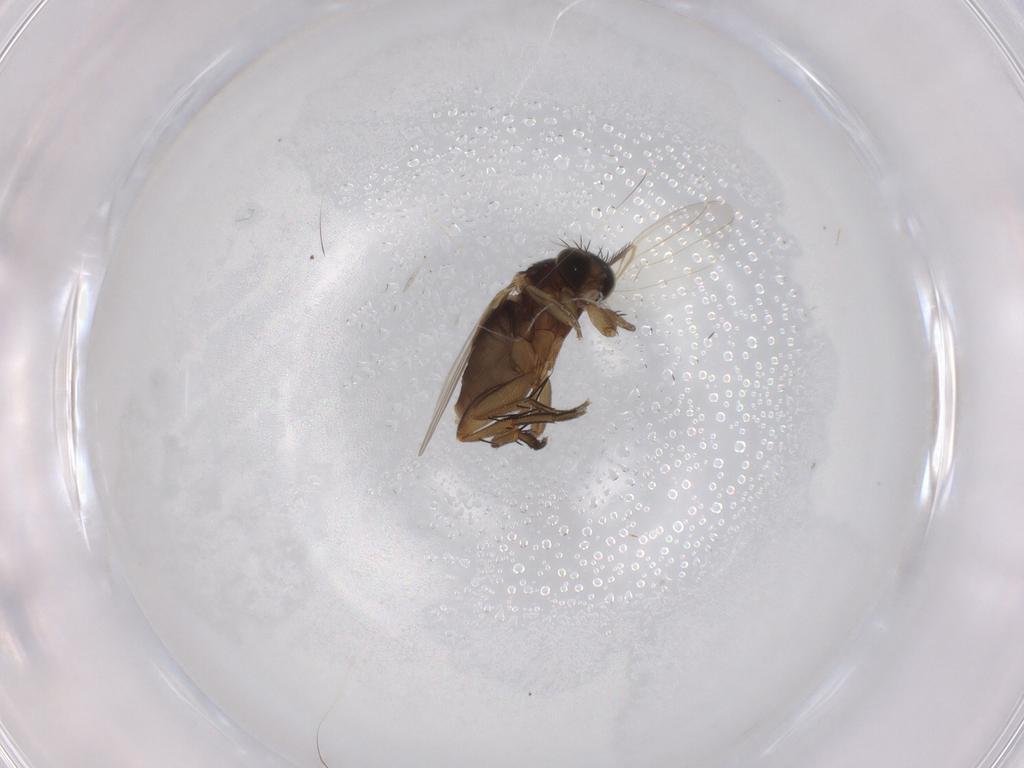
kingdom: Animalia
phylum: Arthropoda
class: Insecta
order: Diptera
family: Phoridae
